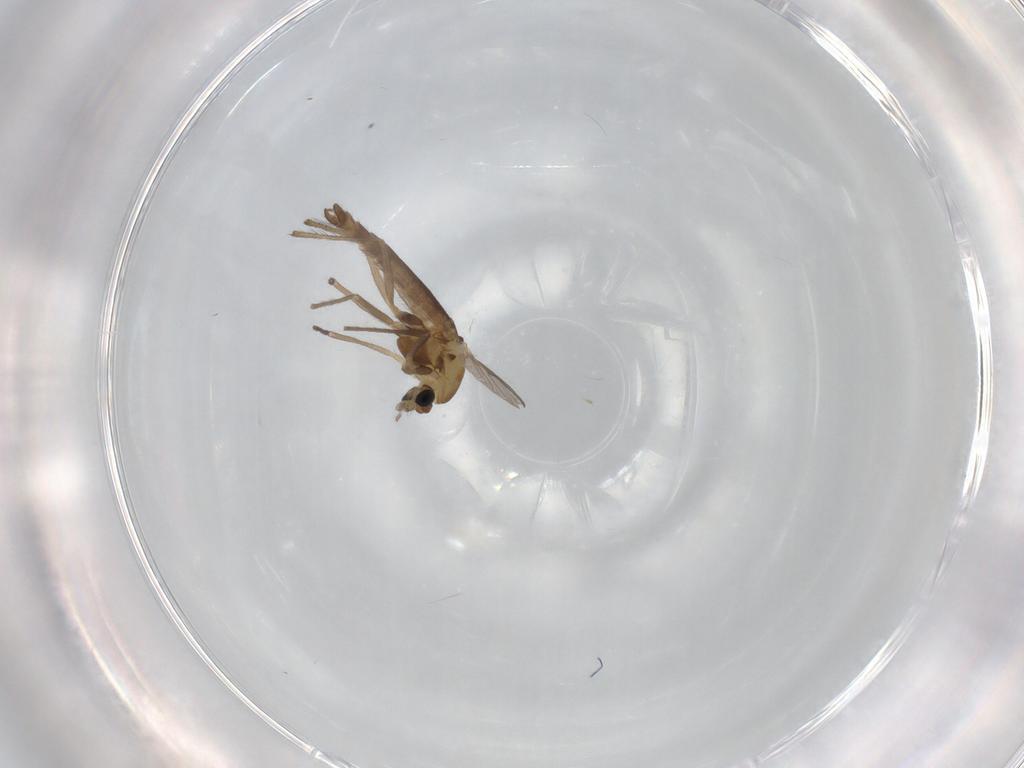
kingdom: Animalia
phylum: Arthropoda
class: Insecta
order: Diptera
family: Chironomidae
